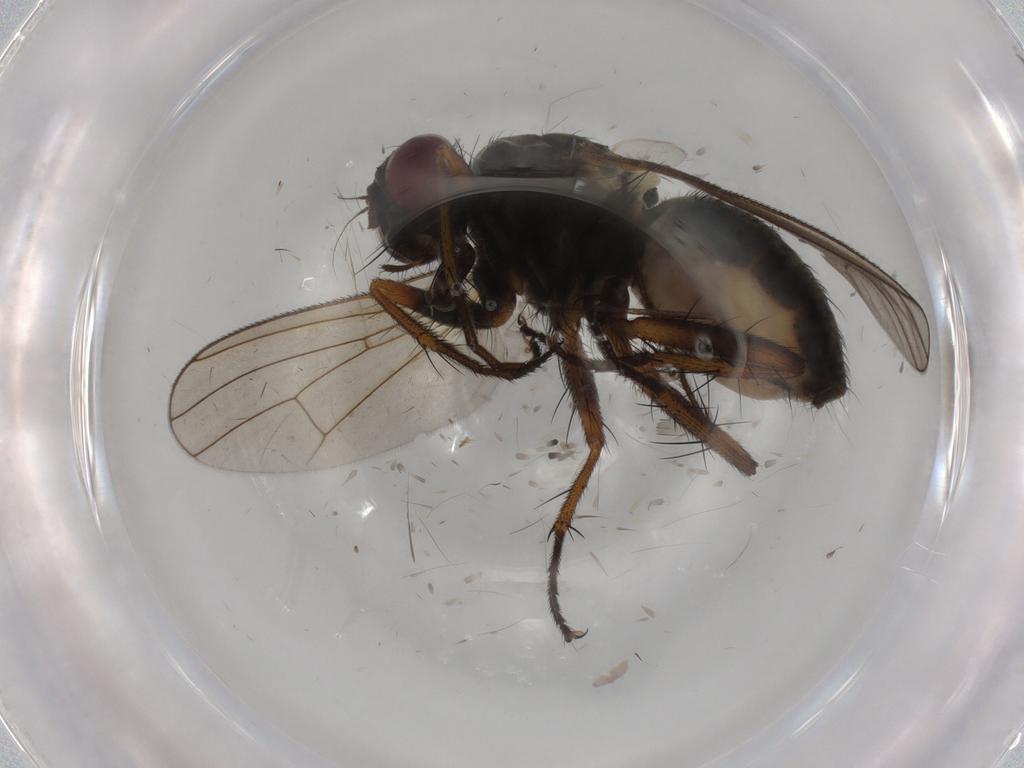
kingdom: Animalia
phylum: Arthropoda
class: Insecta
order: Diptera
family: Muscidae
